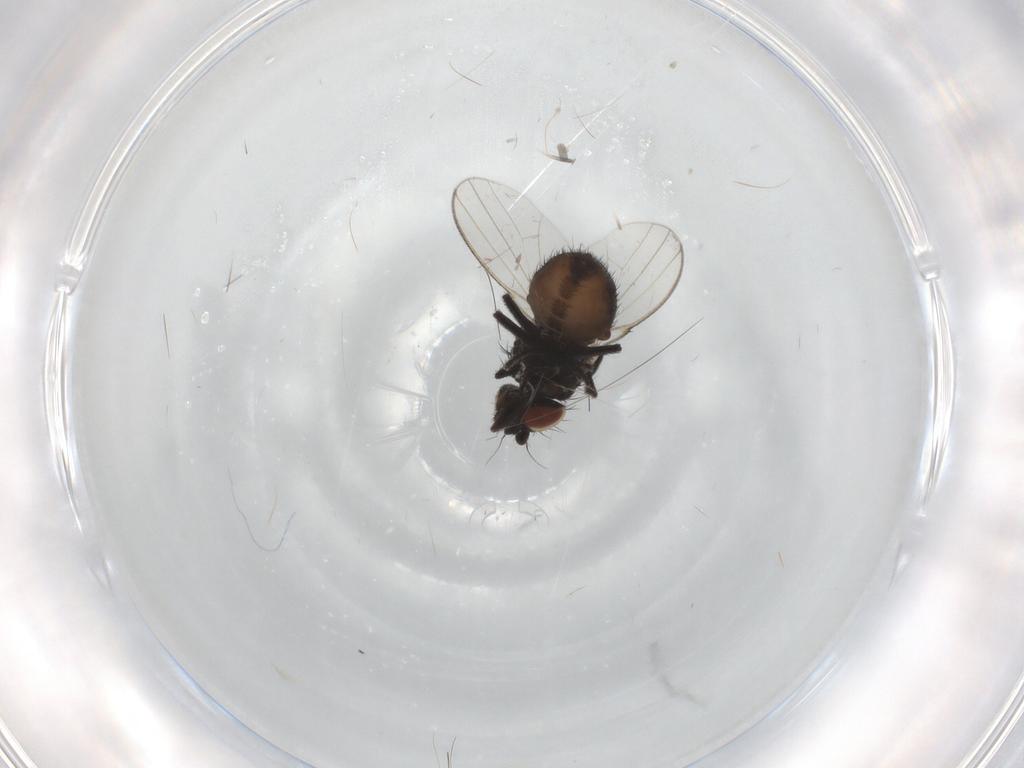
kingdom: Animalia
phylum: Arthropoda
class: Insecta
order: Diptera
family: Milichiidae
